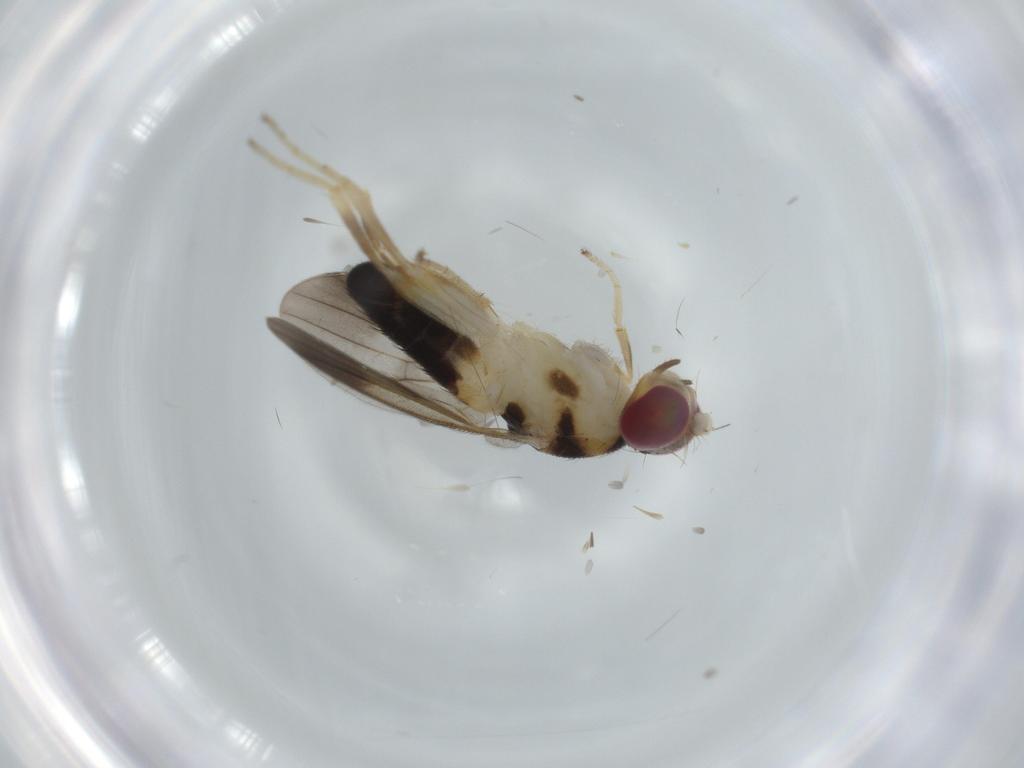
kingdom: Animalia
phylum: Arthropoda
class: Insecta
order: Diptera
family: Clusiidae
